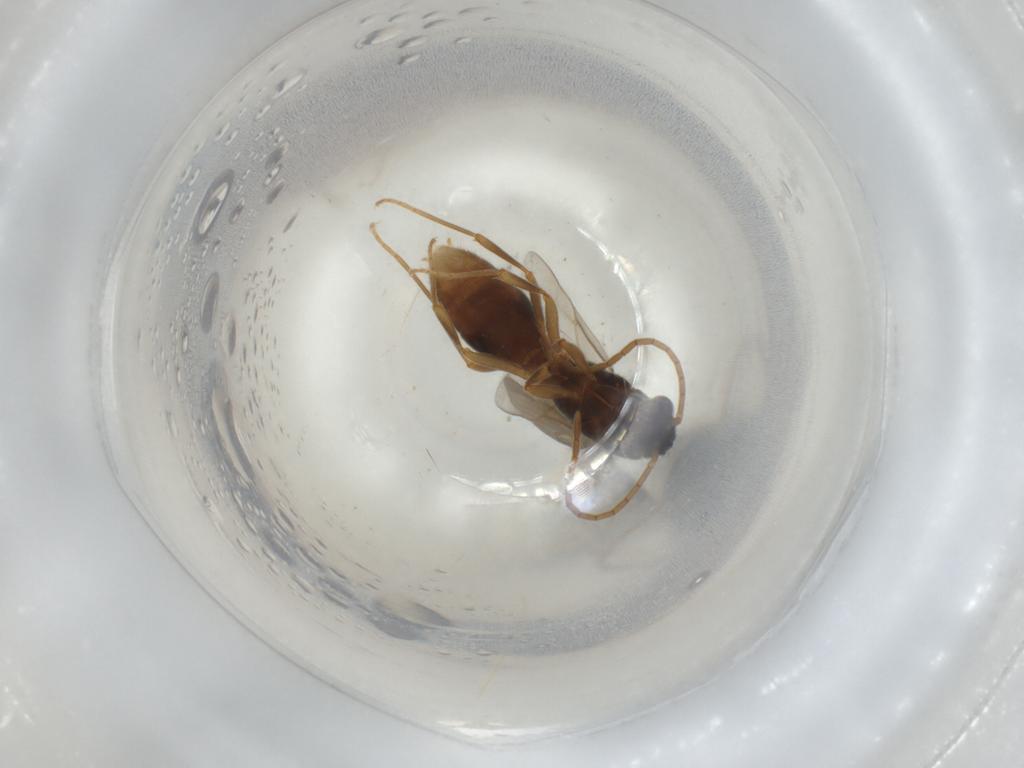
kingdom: Animalia
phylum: Arthropoda
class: Insecta
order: Hymenoptera
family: Formicidae
